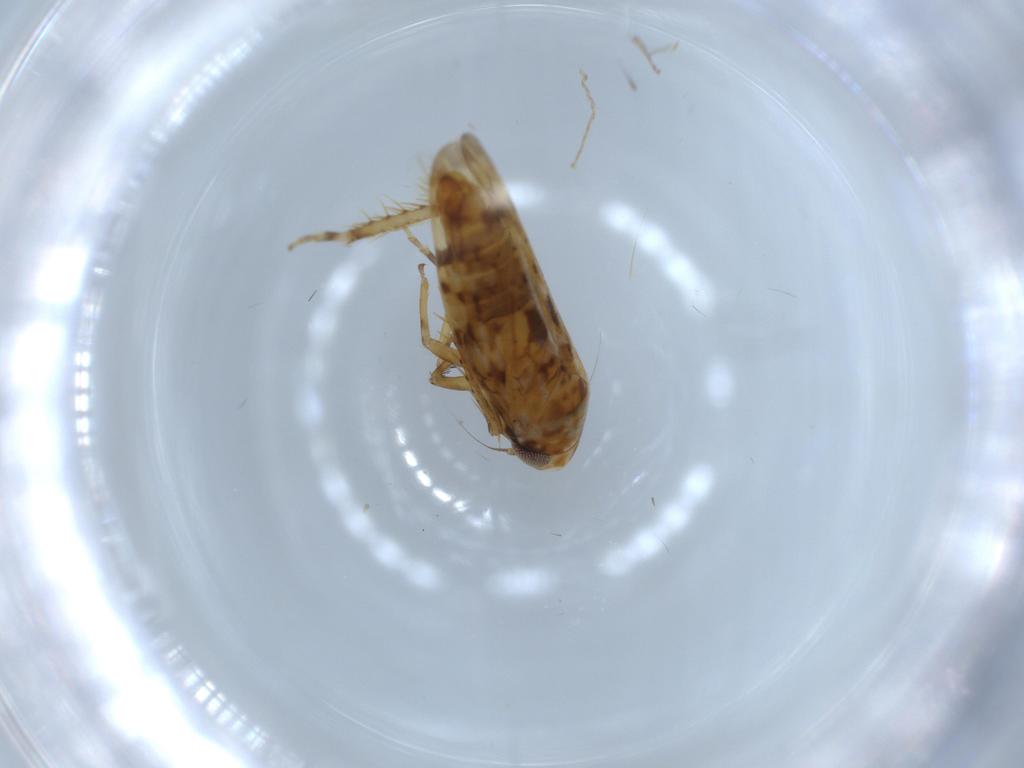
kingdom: Animalia
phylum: Arthropoda
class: Insecta
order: Hemiptera
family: Cicadellidae
